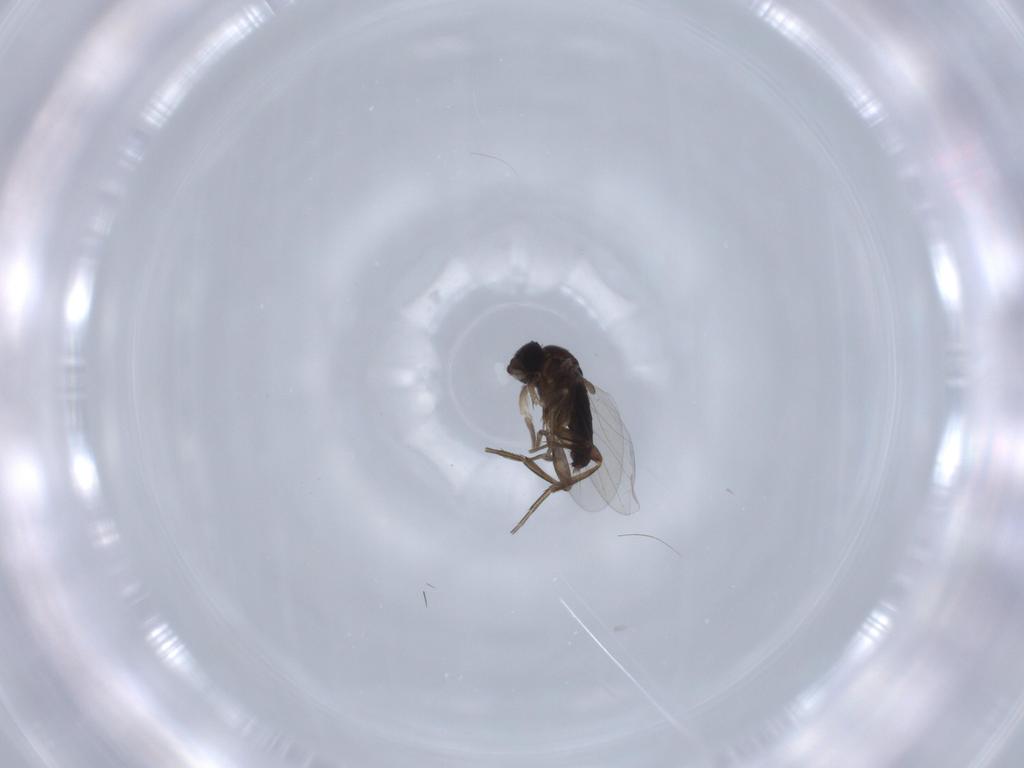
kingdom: Animalia
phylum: Arthropoda
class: Insecta
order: Diptera
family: Phoridae
